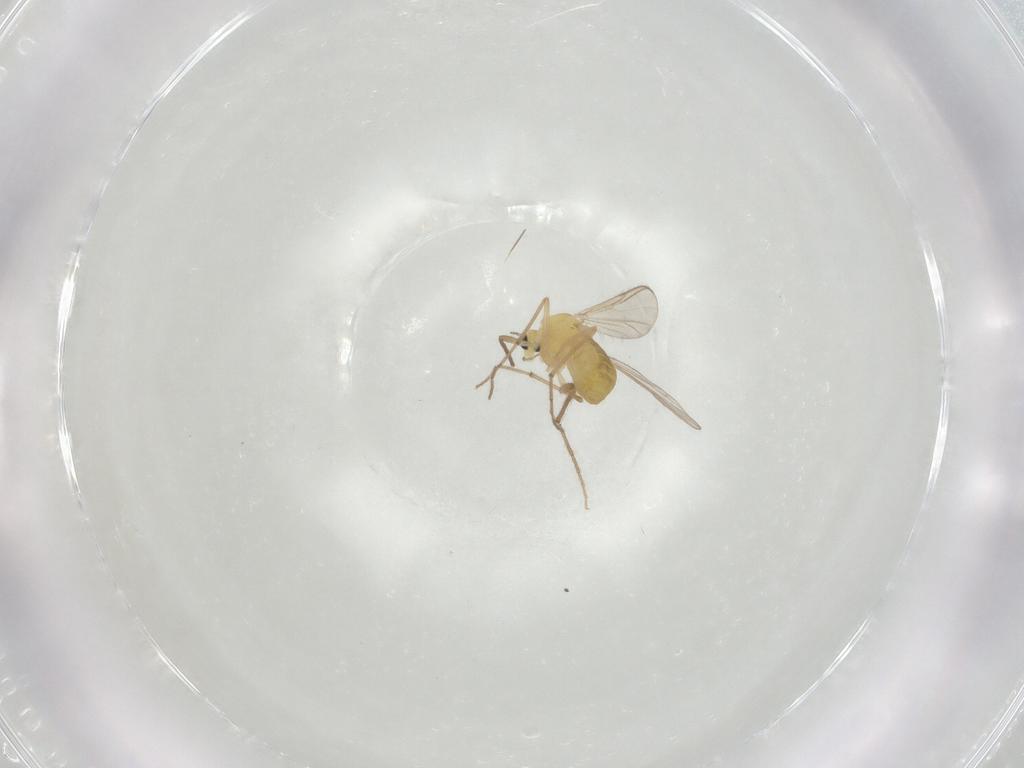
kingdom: Animalia
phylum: Arthropoda
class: Insecta
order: Diptera
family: Chironomidae
